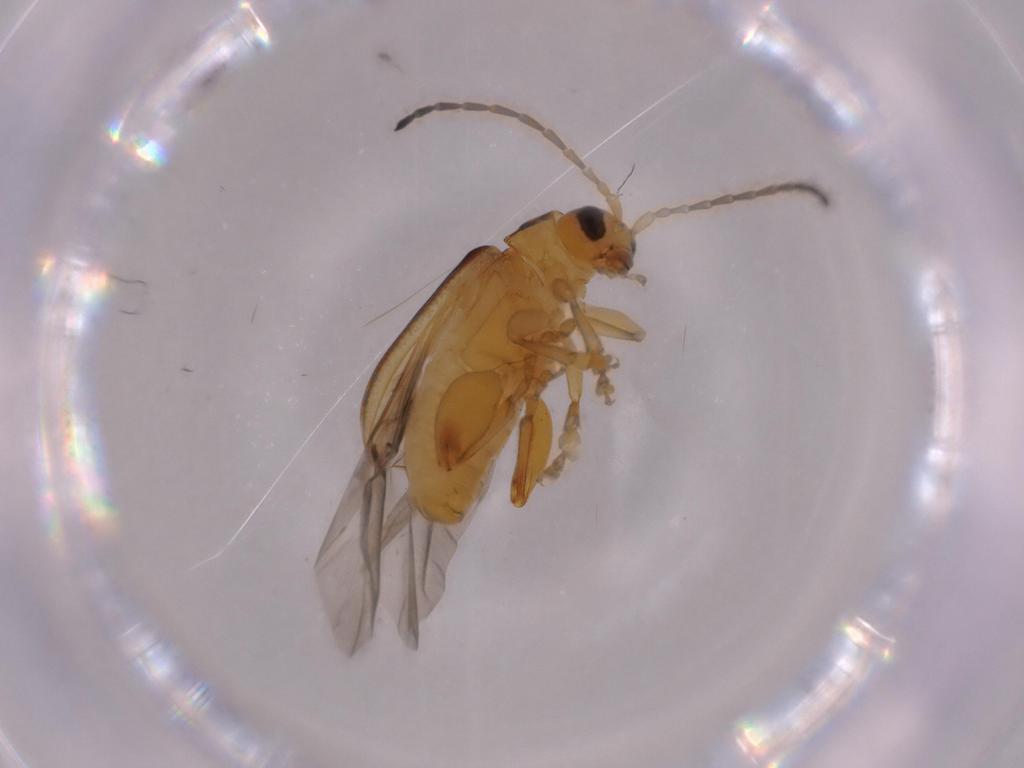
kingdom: Animalia
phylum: Arthropoda
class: Insecta
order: Coleoptera
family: Chrysomelidae
